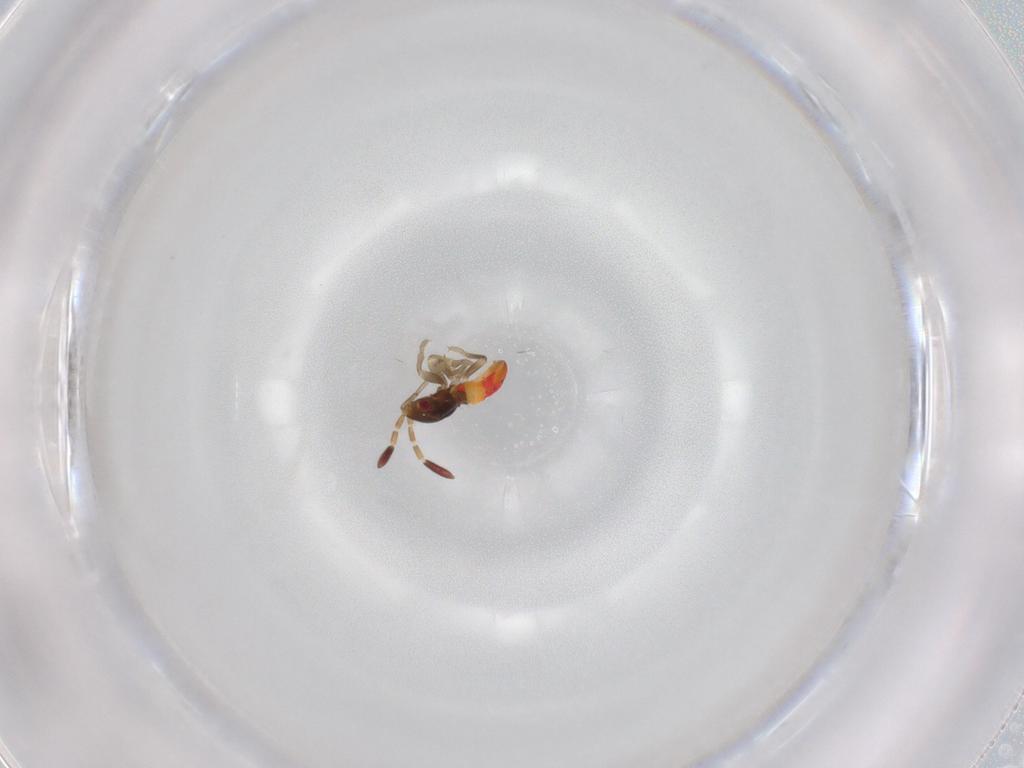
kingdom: Animalia
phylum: Arthropoda
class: Insecta
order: Hemiptera
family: Rhyparochromidae
